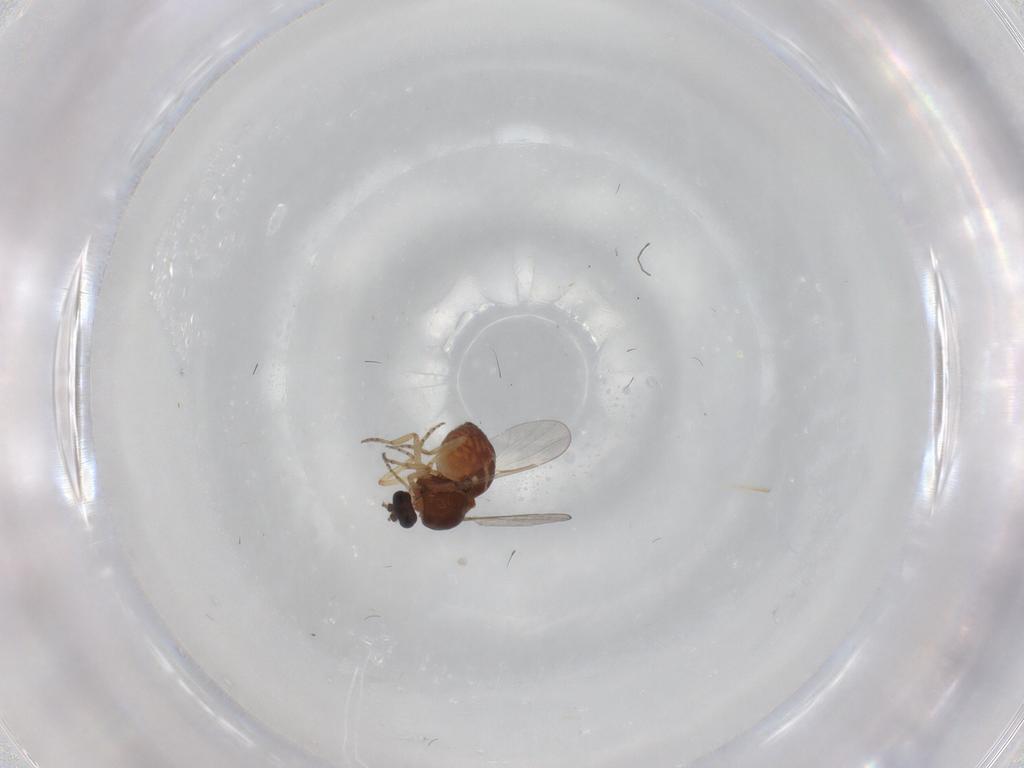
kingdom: Animalia
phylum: Arthropoda
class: Insecta
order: Diptera
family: Ceratopogonidae
